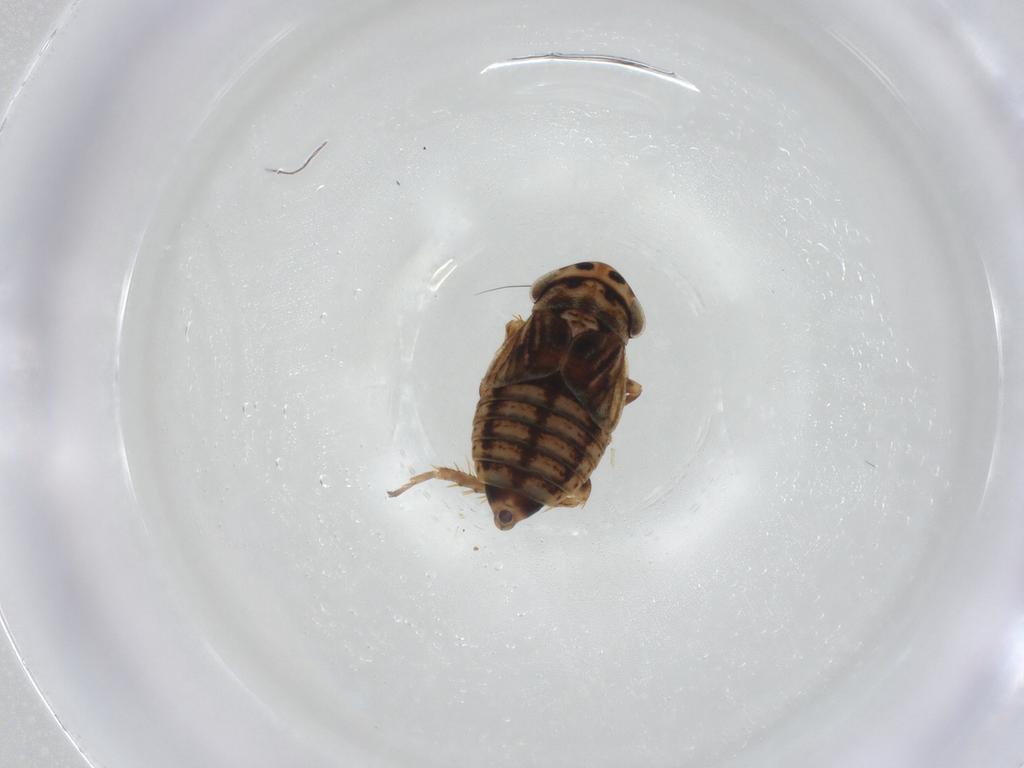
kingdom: Animalia
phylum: Arthropoda
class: Insecta
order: Hemiptera
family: Cicadellidae
